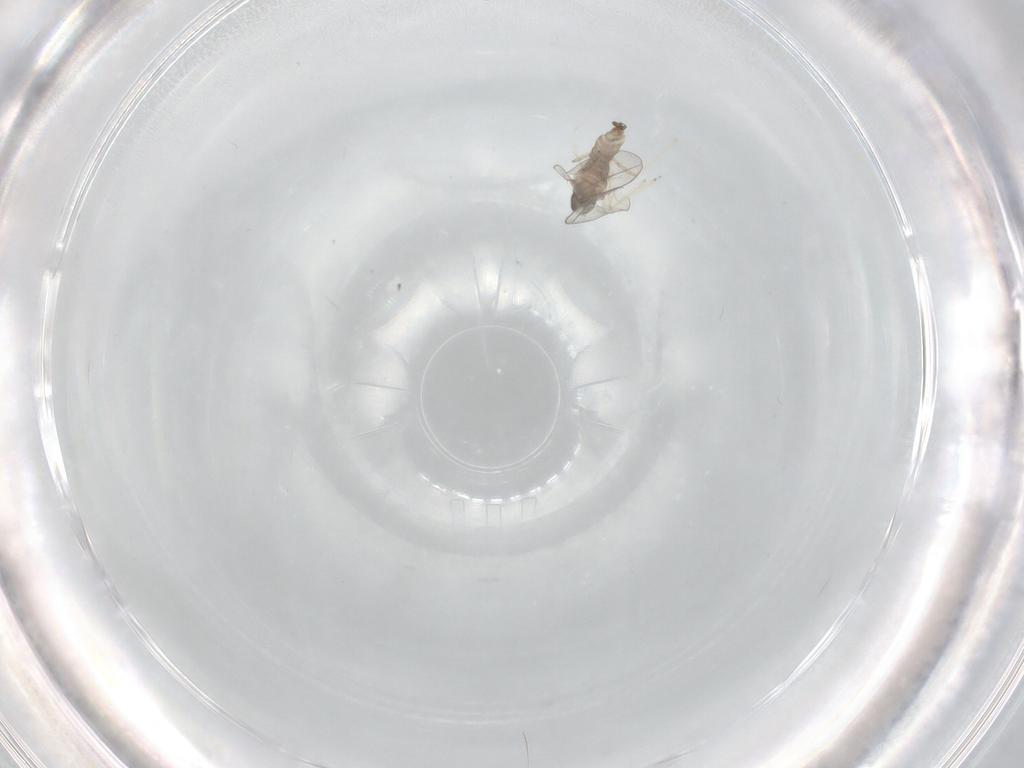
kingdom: Animalia
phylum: Arthropoda
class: Insecta
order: Diptera
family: Cecidomyiidae
